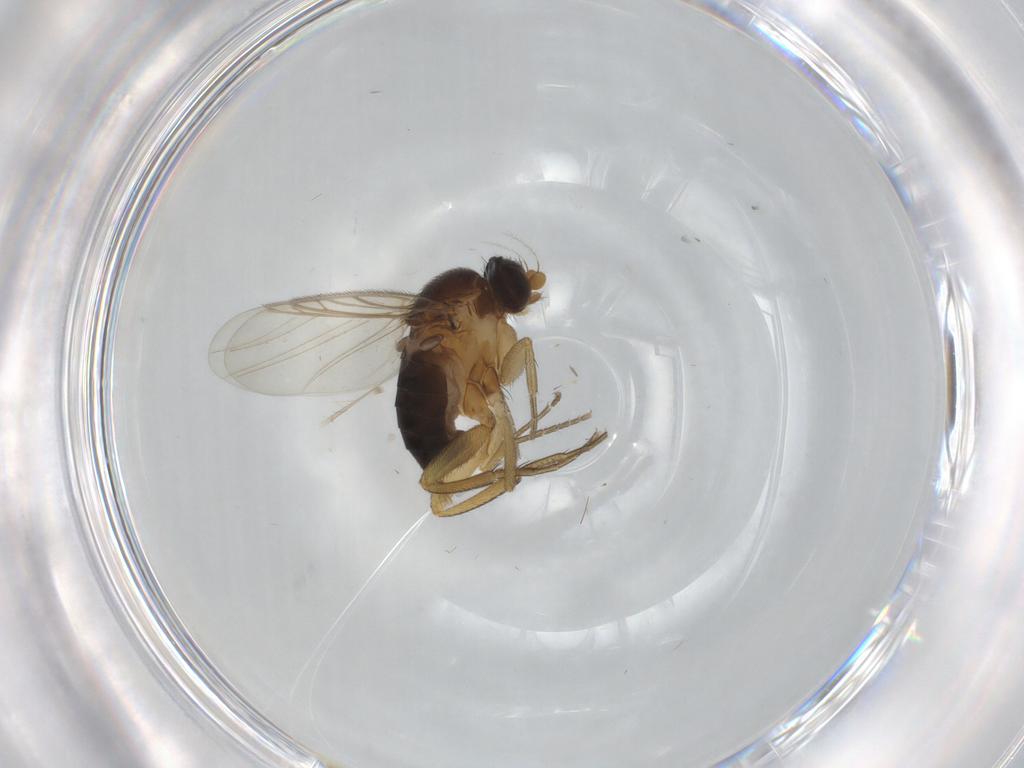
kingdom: Animalia
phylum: Arthropoda
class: Insecta
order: Diptera
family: Phoridae
